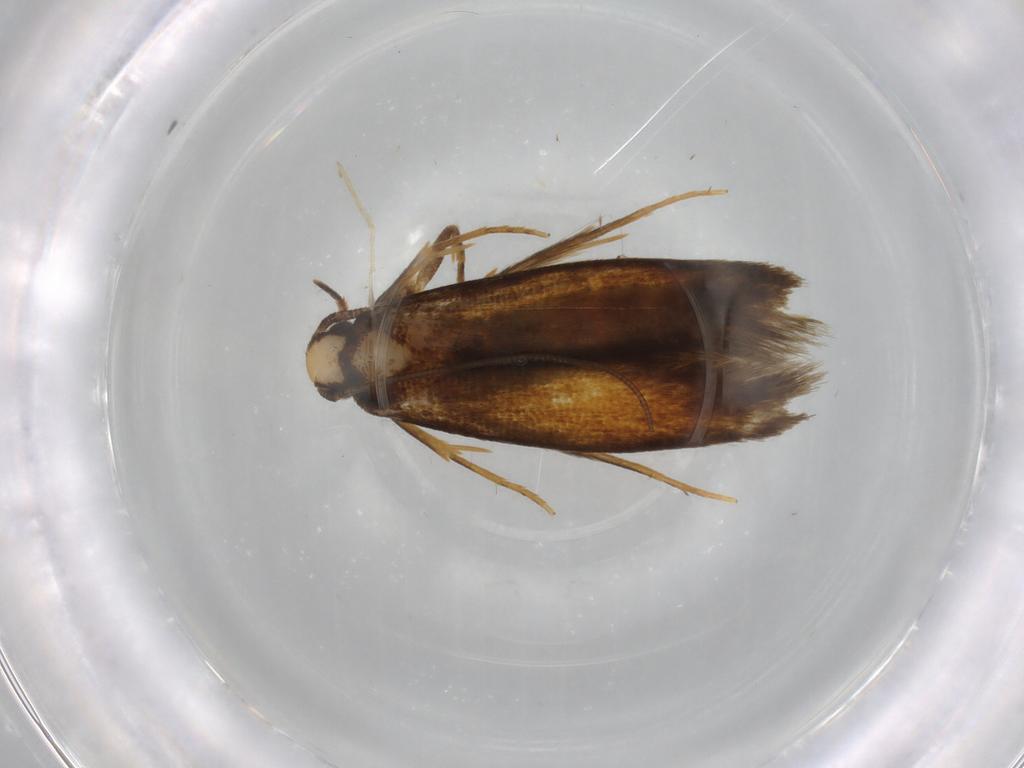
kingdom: Animalia
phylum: Arthropoda
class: Insecta
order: Lepidoptera
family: Tineidae
